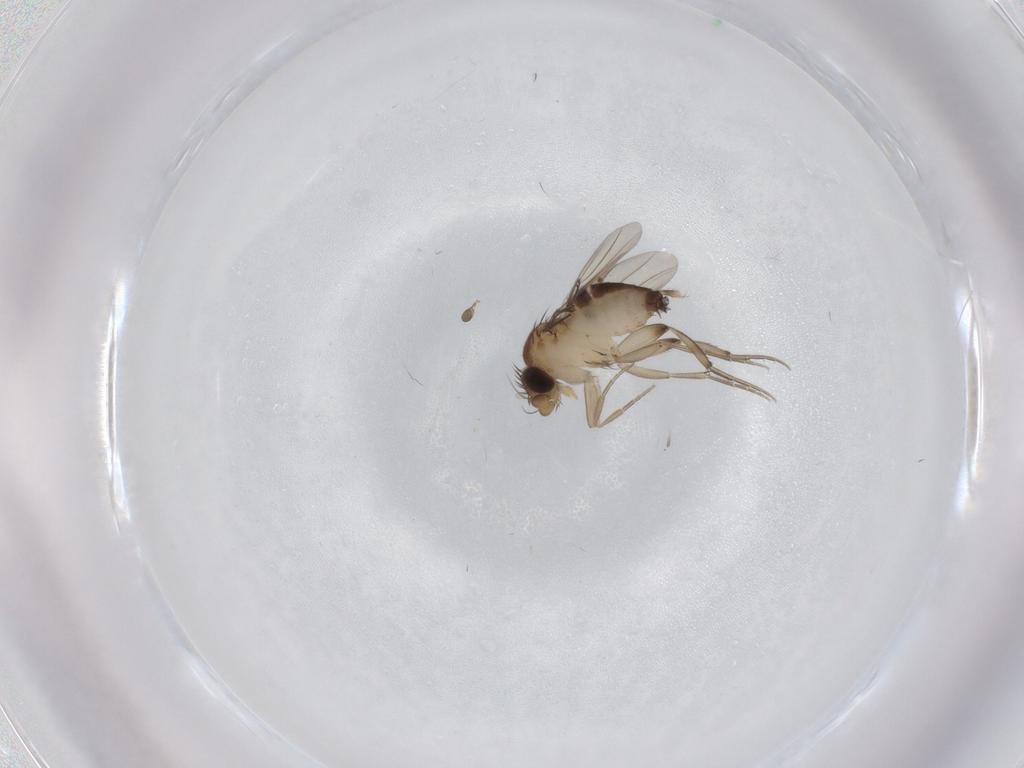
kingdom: Animalia
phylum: Arthropoda
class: Insecta
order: Diptera
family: Phoridae
